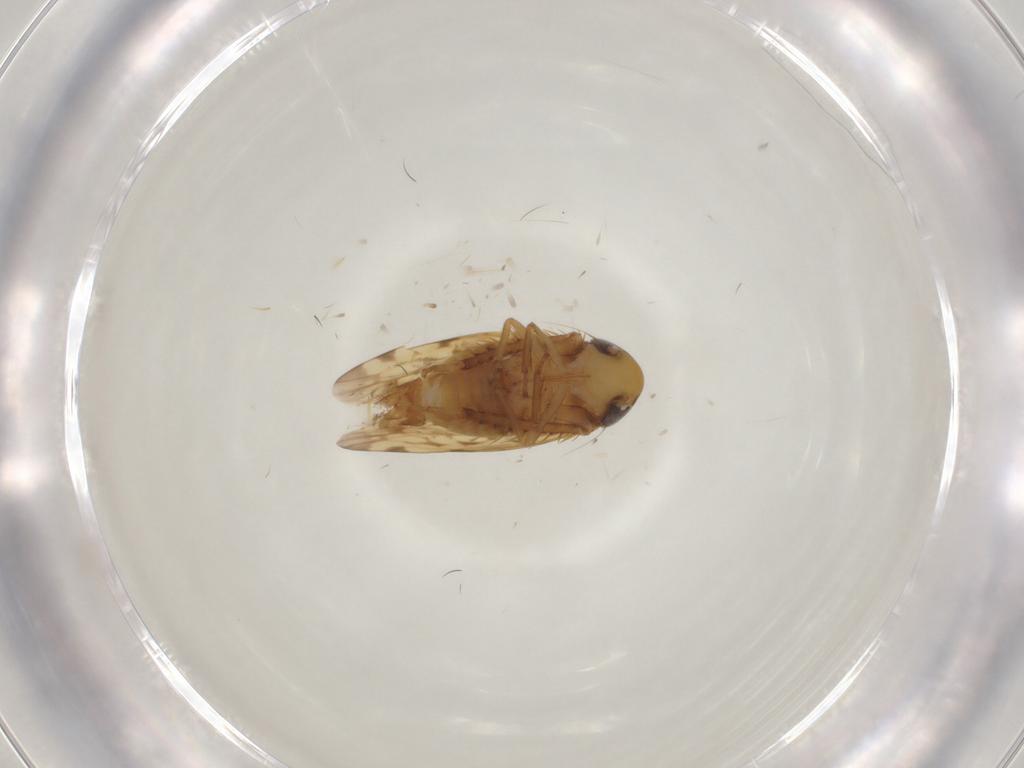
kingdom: Animalia
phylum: Arthropoda
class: Insecta
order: Hemiptera
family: Cicadellidae
